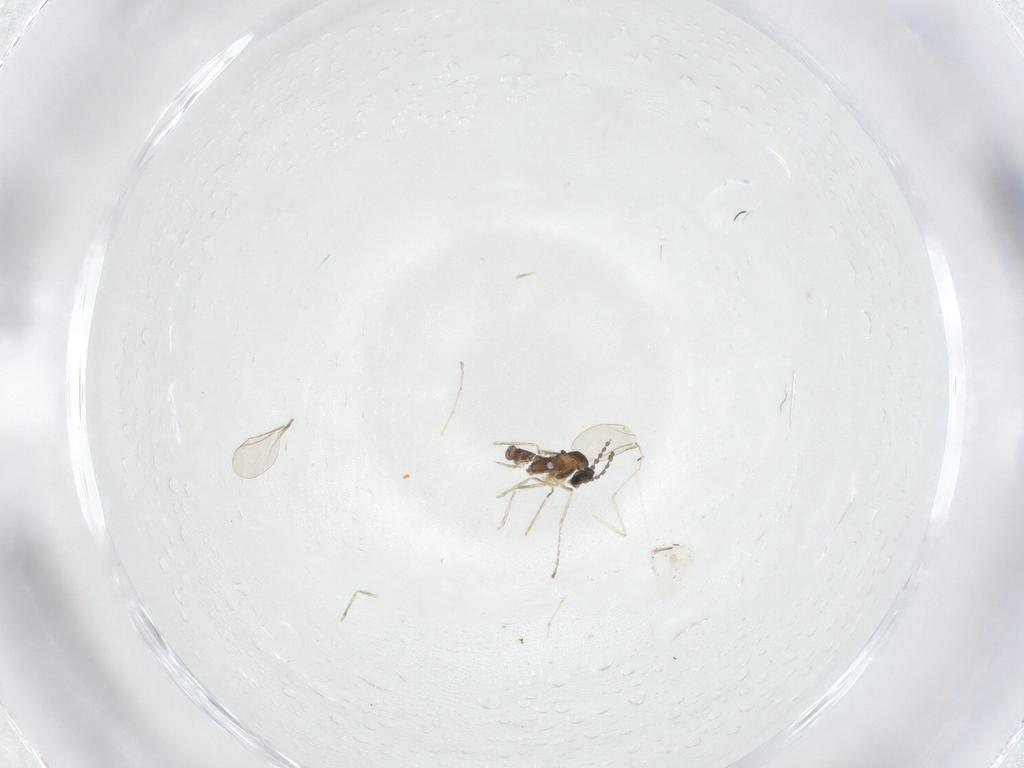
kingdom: Animalia
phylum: Arthropoda
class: Insecta
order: Diptera
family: Cecidomyiidae
